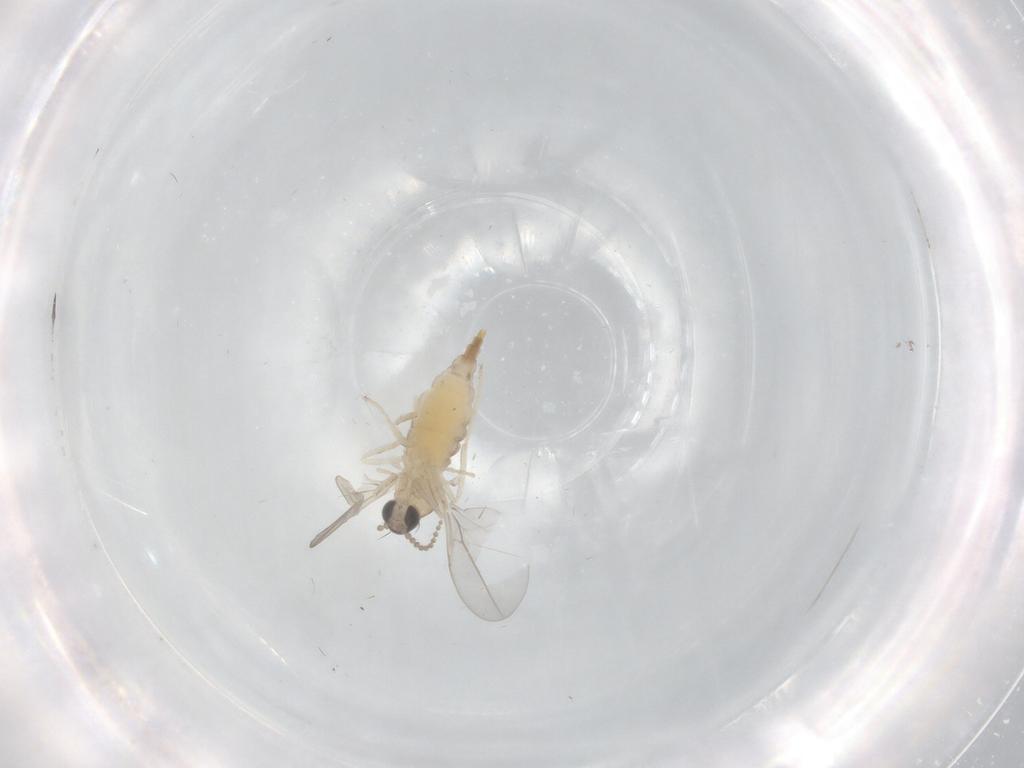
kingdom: Animalia
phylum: Arthropoda
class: Insecta
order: Diptera
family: Cecidomyiidae
